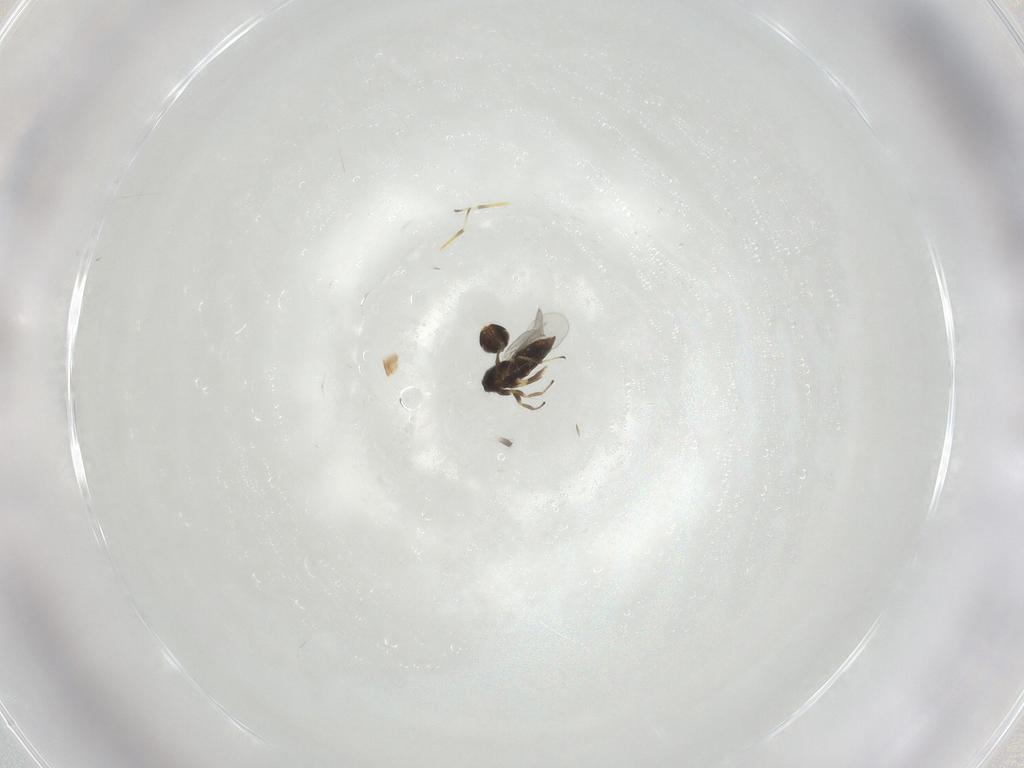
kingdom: Animalia
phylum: Arthropoda
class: Insecta
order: Hymenoptera
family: Encyrtidae
